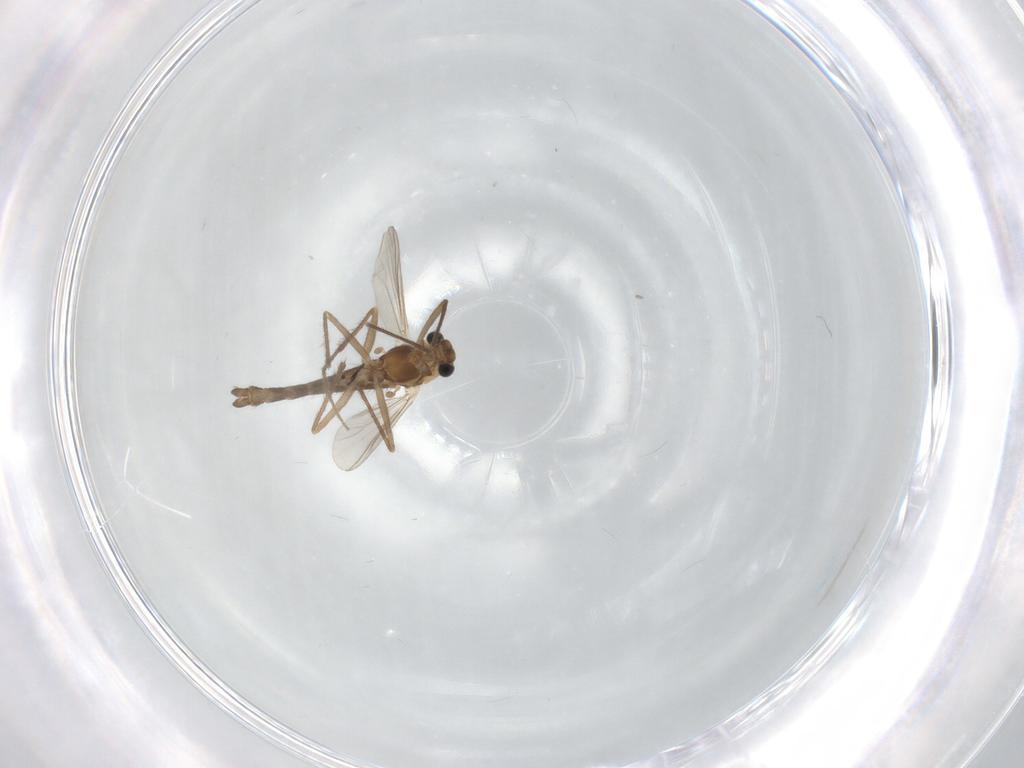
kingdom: Animalia
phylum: Arthropoda
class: Insecta
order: Diptera
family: Chironomidae
